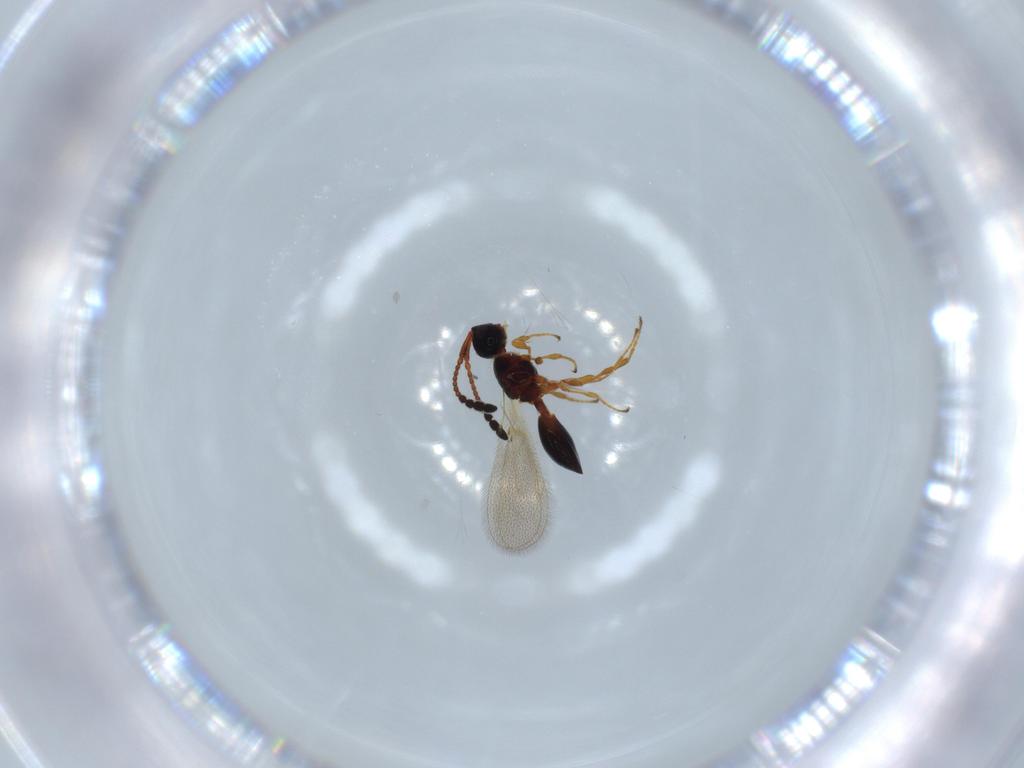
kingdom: Animalia
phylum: Arthropoda
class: Insecta
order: Hymenoptera
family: Diapriidae
